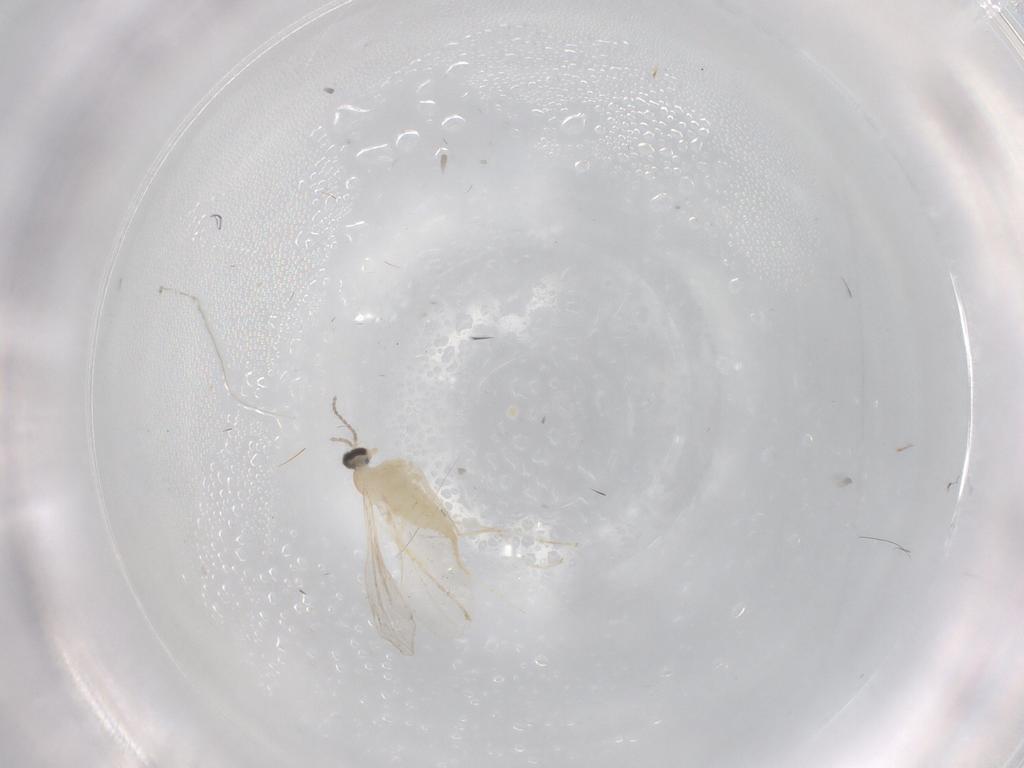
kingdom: Animalia
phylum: Arthropoda
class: Insecta
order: Diptera
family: Cecidomyiidae
